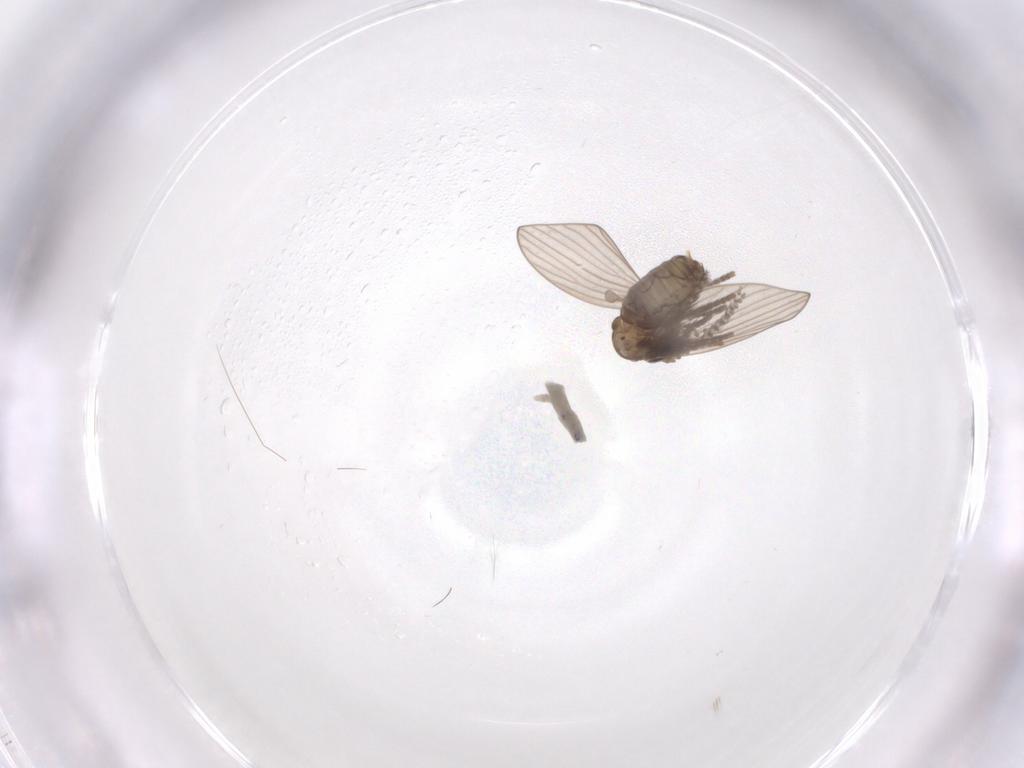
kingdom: Animalia
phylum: Arthropoda
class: Insecta
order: Diptera
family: Psychodidae
